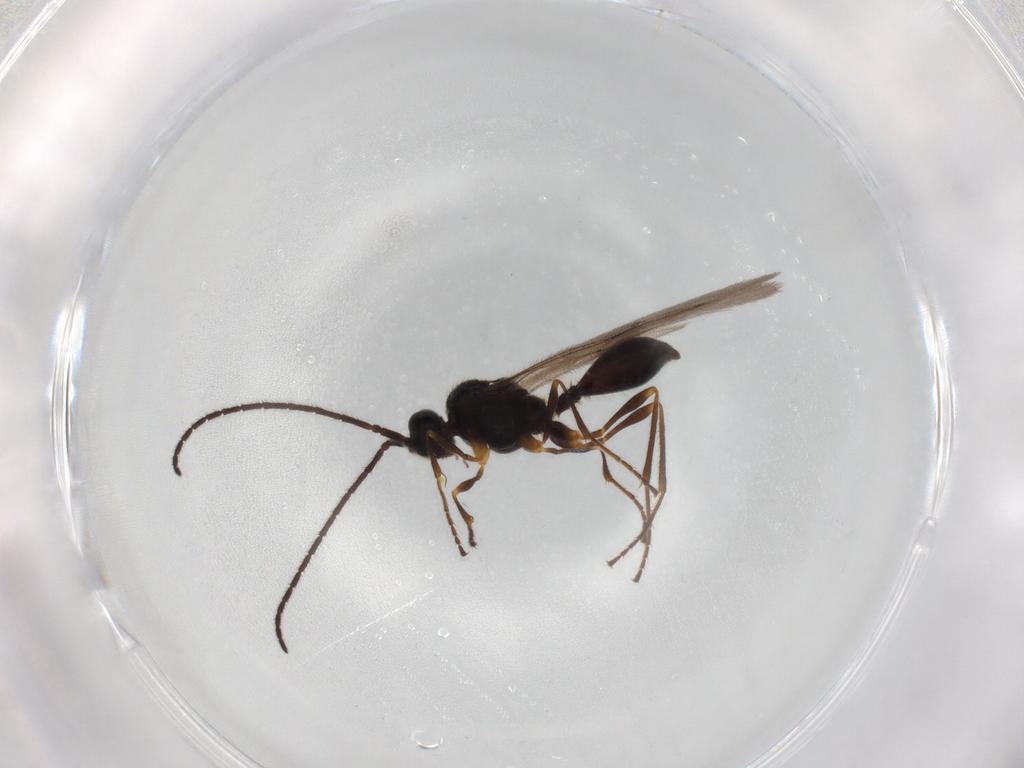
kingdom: Animalia
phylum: Arthropoda
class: Insecta
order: Hymenoptera
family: Diapriidae
